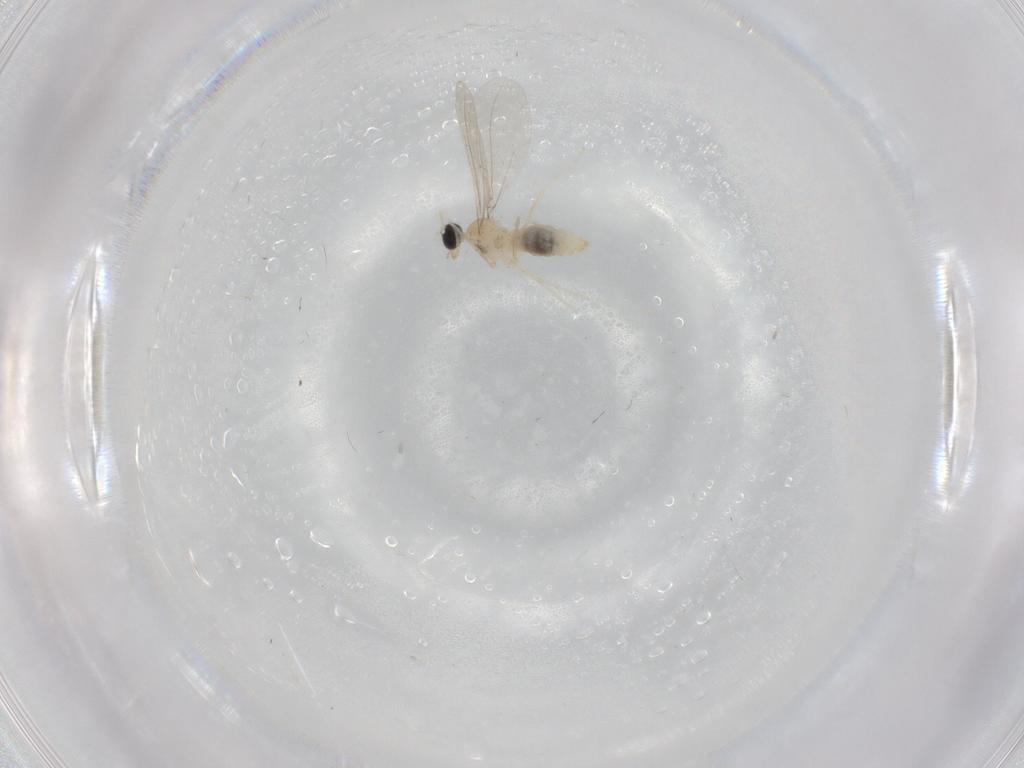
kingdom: Animalia
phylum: Arthropoda
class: Insecta
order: Diptera
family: Cecidomyiidae
